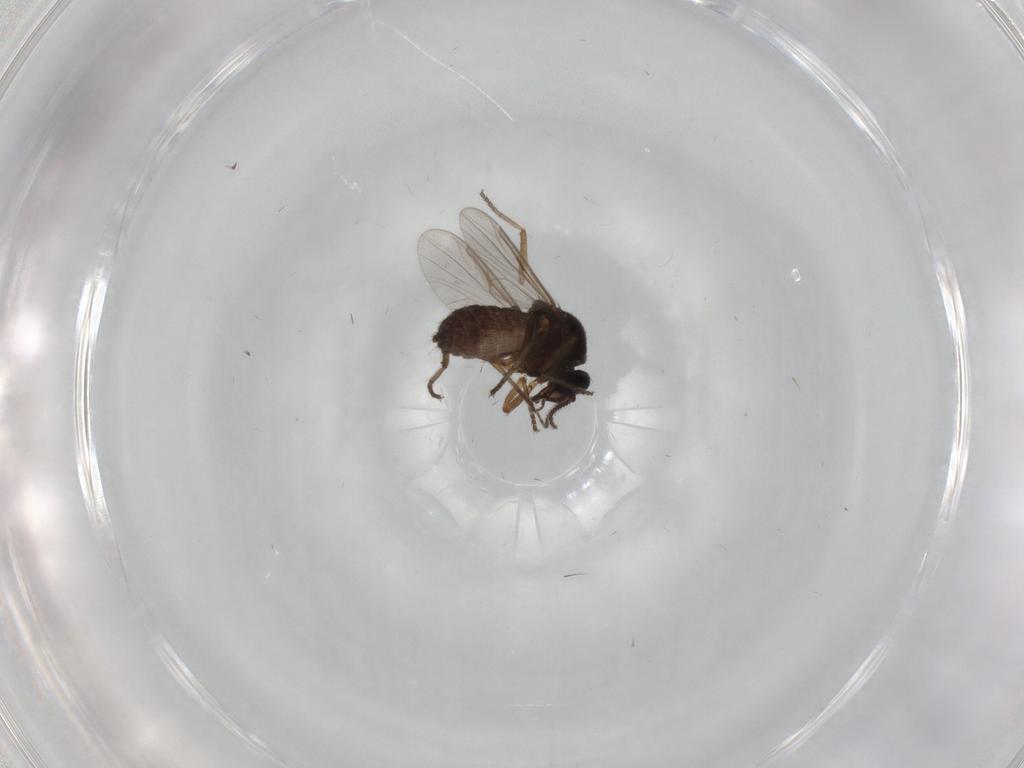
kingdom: Animalia
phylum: Arthropoda
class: Insecta
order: Diptera
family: Ceratopogonidae
